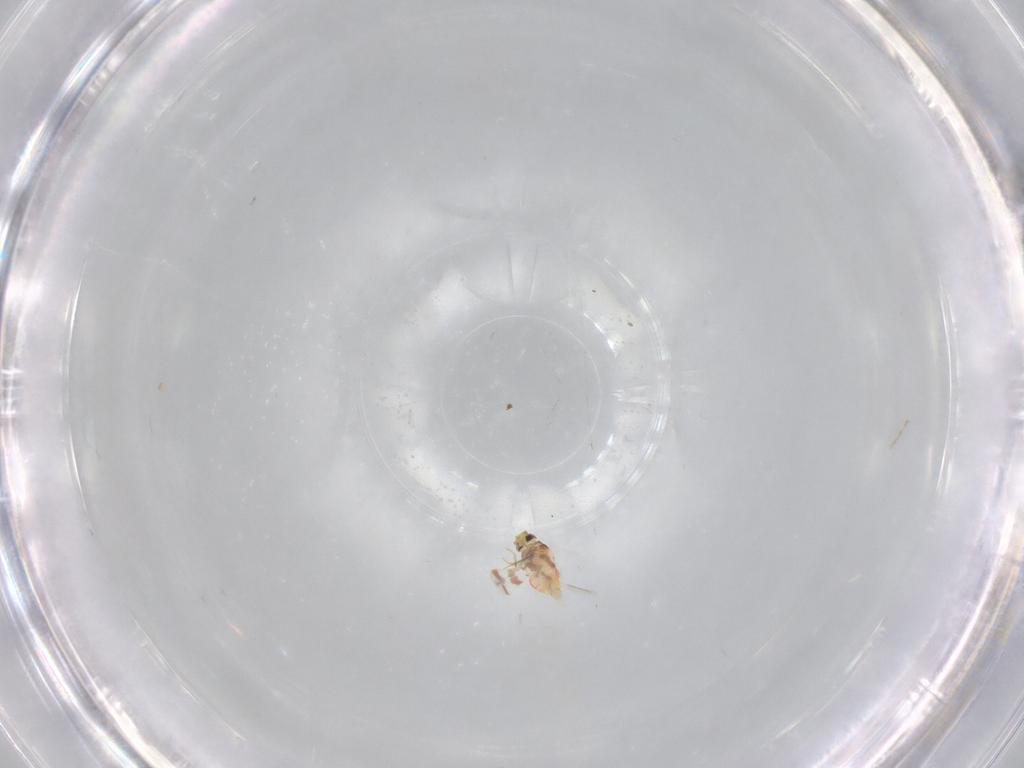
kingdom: Animalia
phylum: Arthropoda
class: Insecta
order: Hemiptera
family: Aleyrodidae
